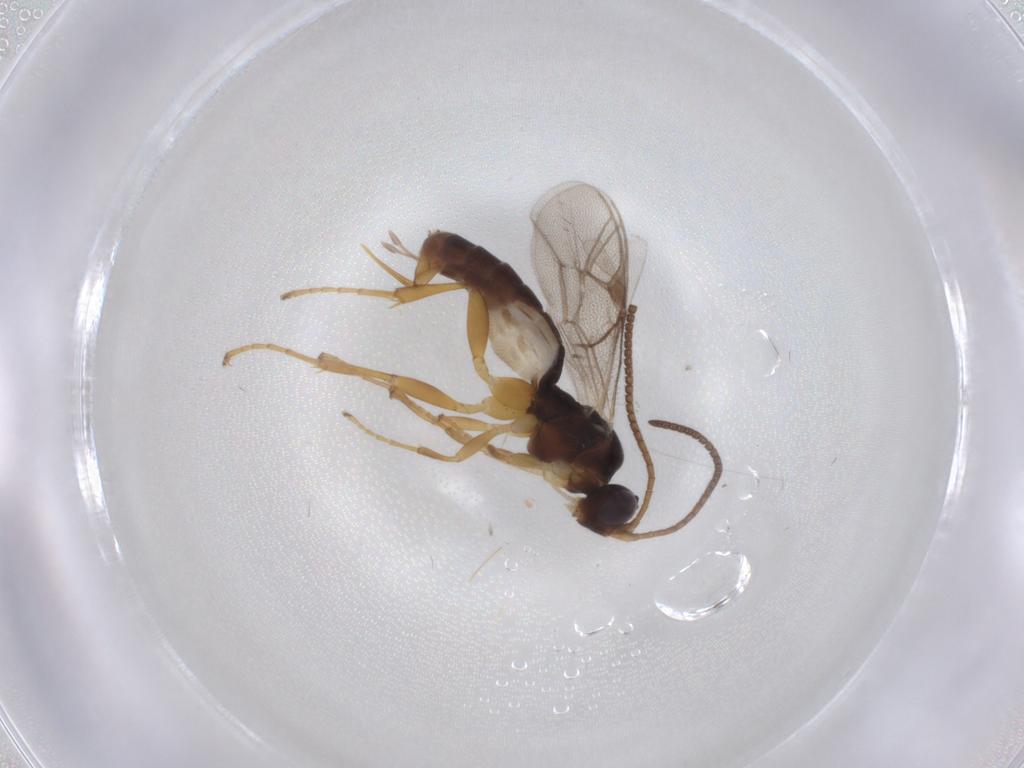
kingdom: Animalia
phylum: Arthropoda
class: Insecta
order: Hymenoptera
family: Ichneumonidae
